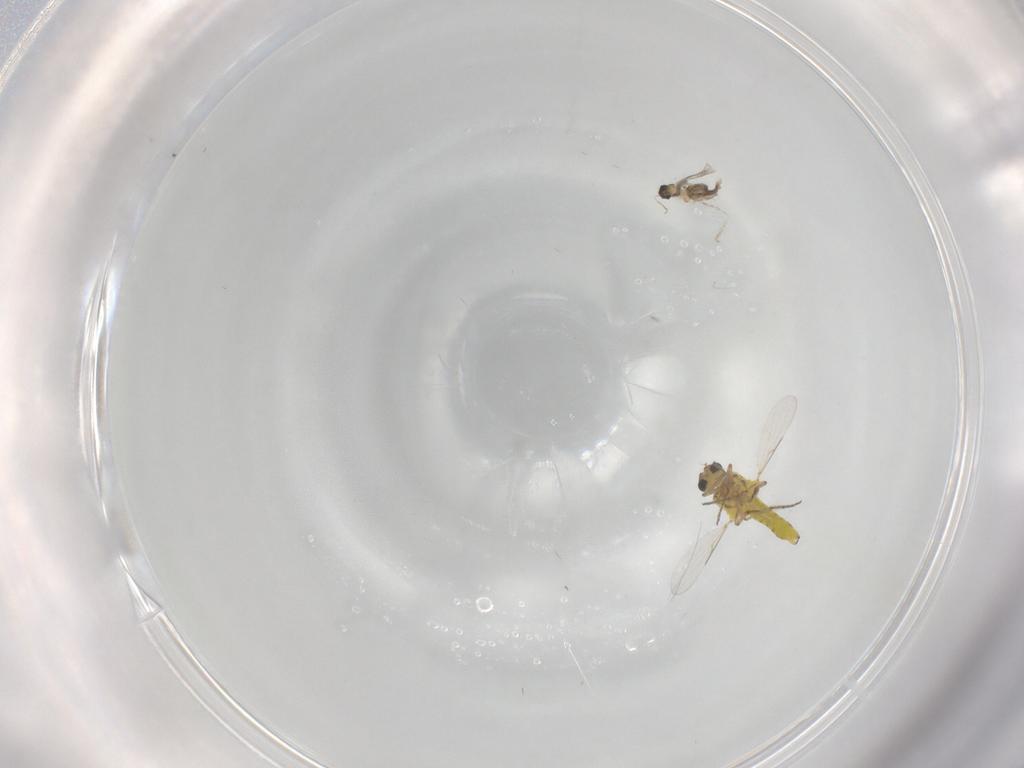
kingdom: Animalia
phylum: Arthropoda
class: Insecta
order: Diptera
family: Cecidomyiidae
